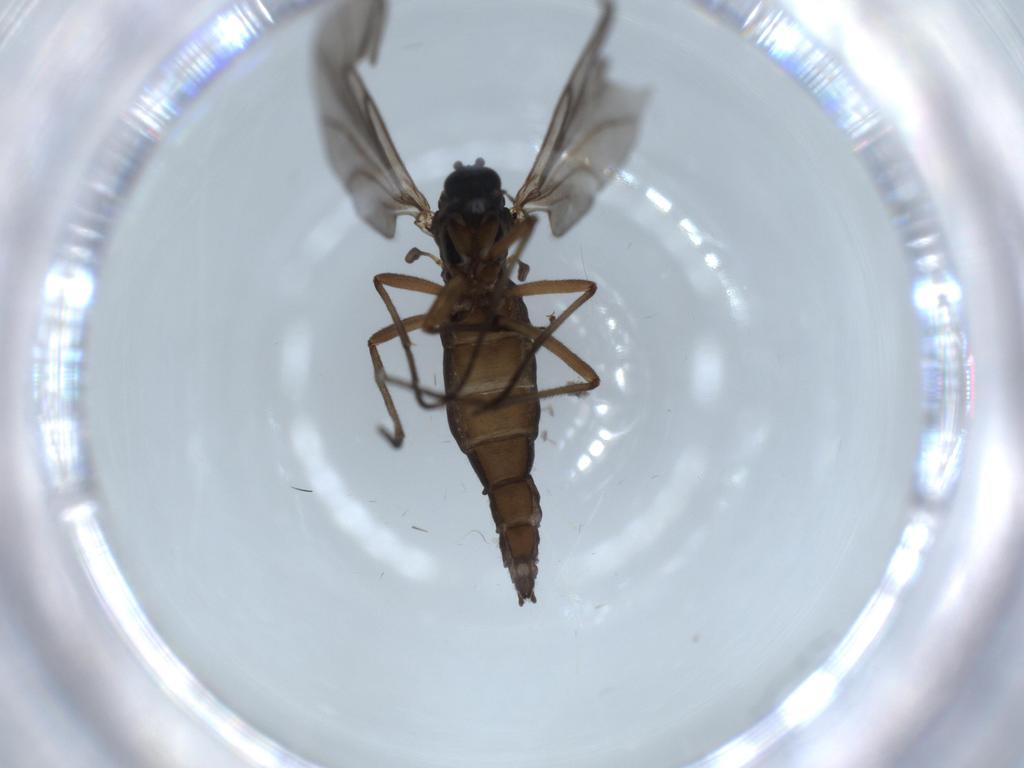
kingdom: Animalia
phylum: Arthropoda
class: Insecta
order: Diptera
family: Sciaridae
